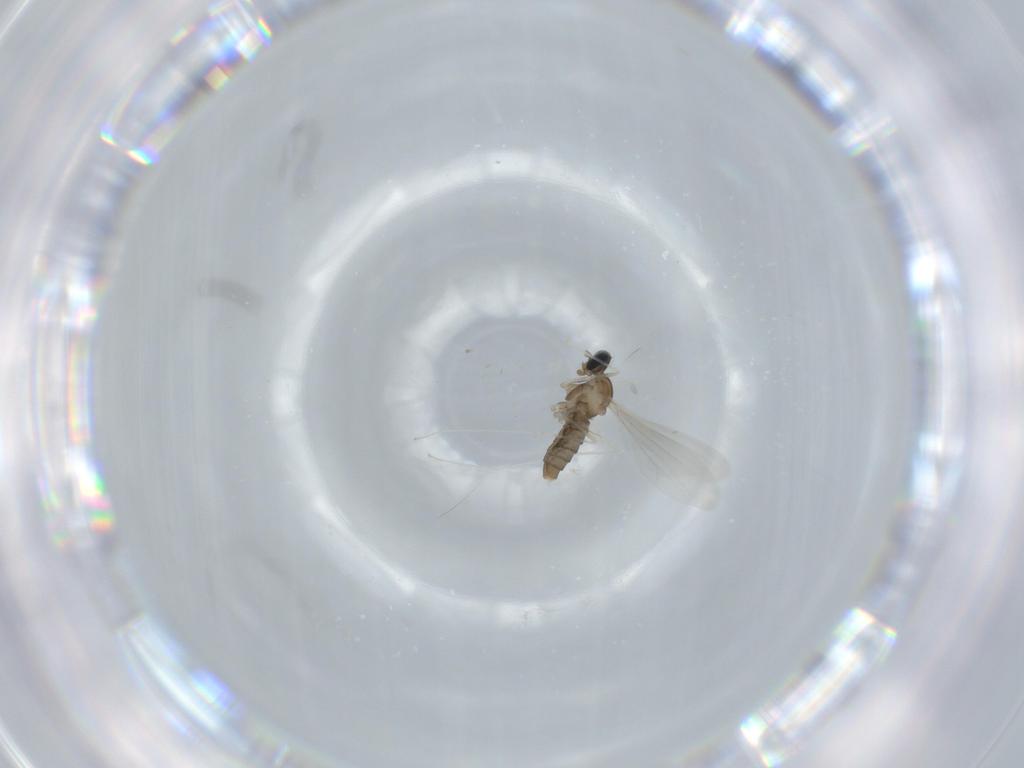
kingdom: Animalia
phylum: Arthropoda
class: Insecta
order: Diptera
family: Cecidomyiidae
